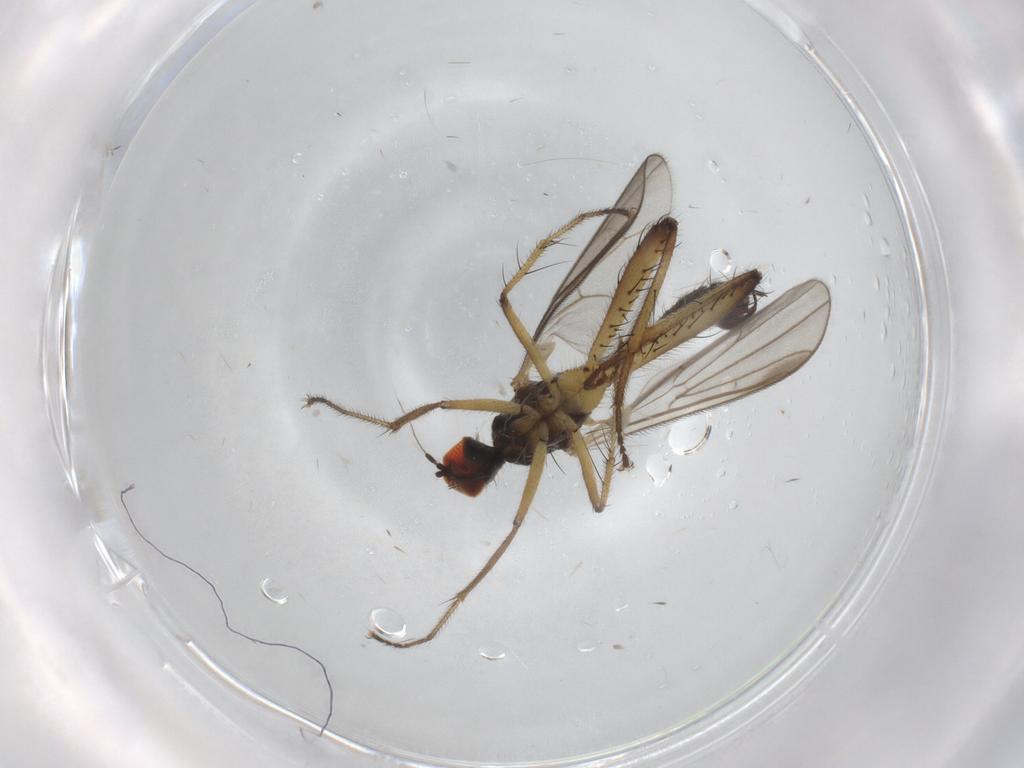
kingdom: Animalia
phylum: Arthropoda
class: Insecta
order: Diptera
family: Hybotidae
